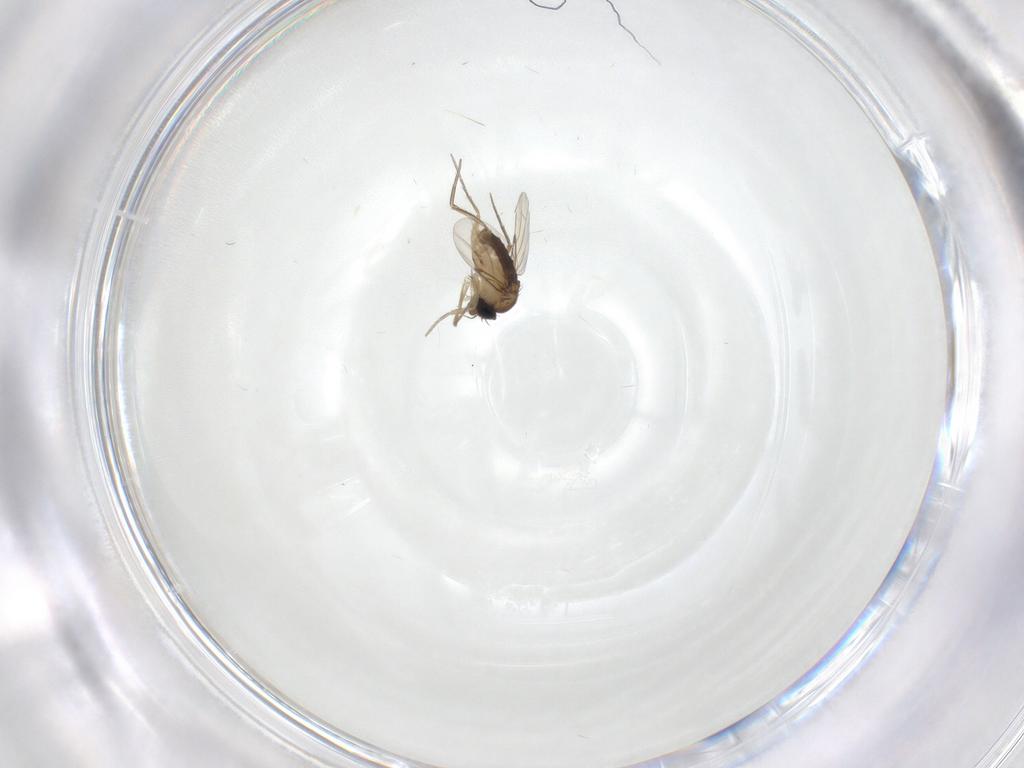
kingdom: Animalia
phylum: Arthropoda
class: Insecta
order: Diptera
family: Phoridae
